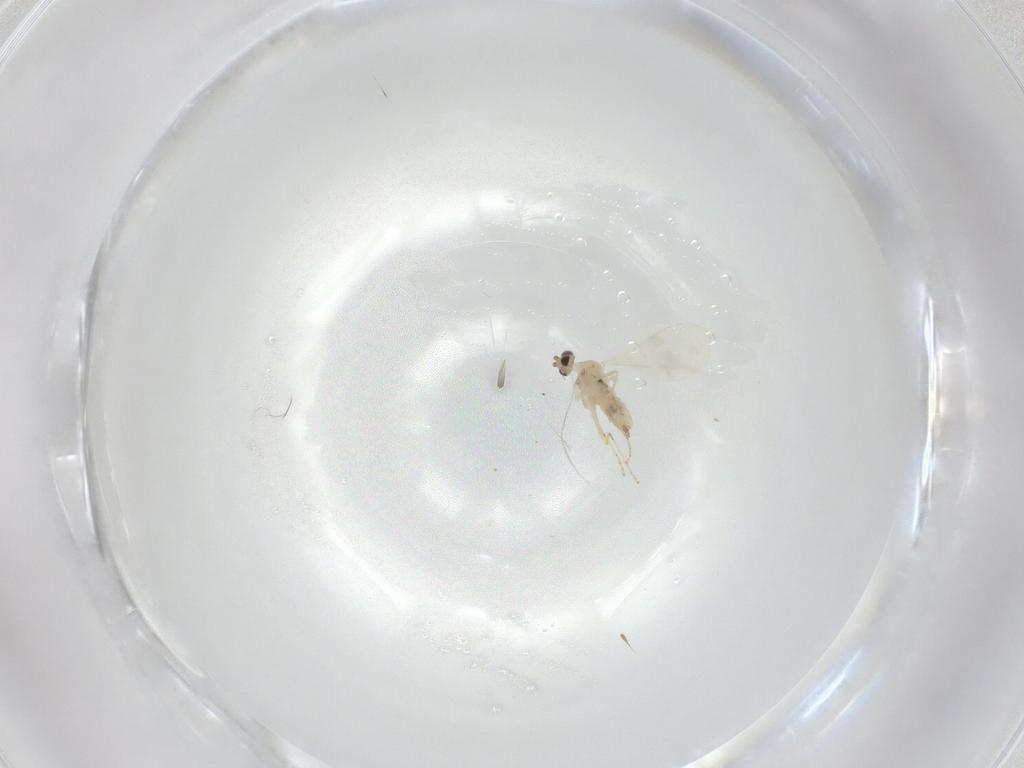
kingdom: Animalia
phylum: Arthropoda
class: Insecta
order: Diptera
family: Cecidomyiidae
